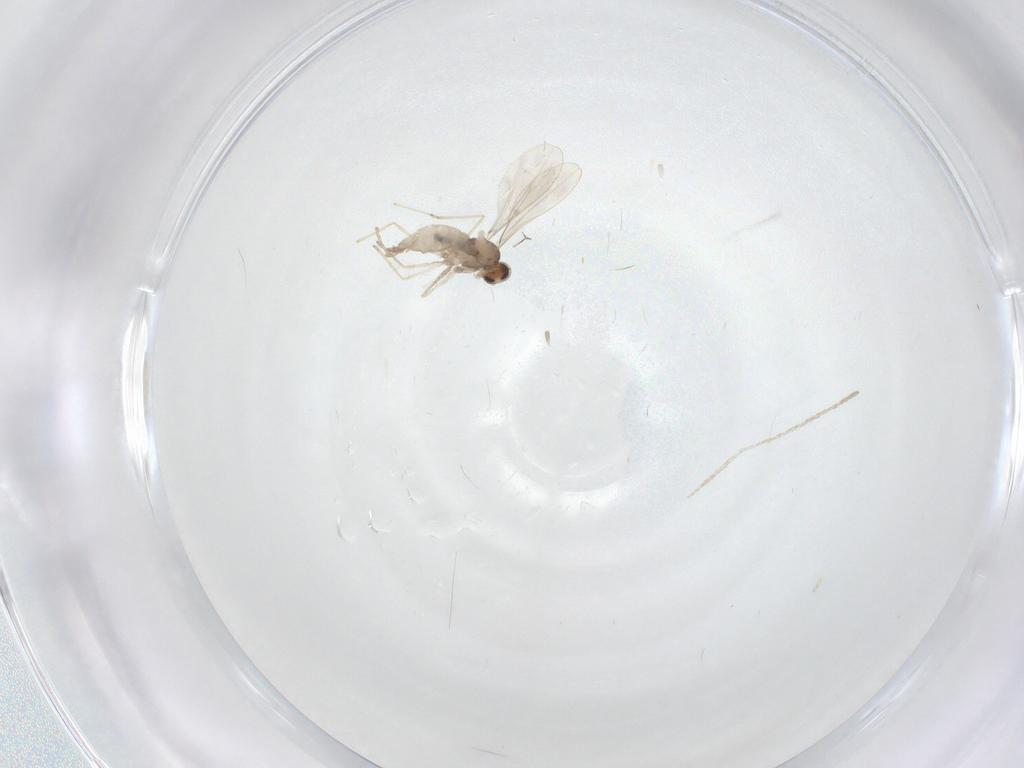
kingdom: Animalia
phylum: Arthropoda
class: Insecta
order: Diptera
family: Cecidomyiidae
